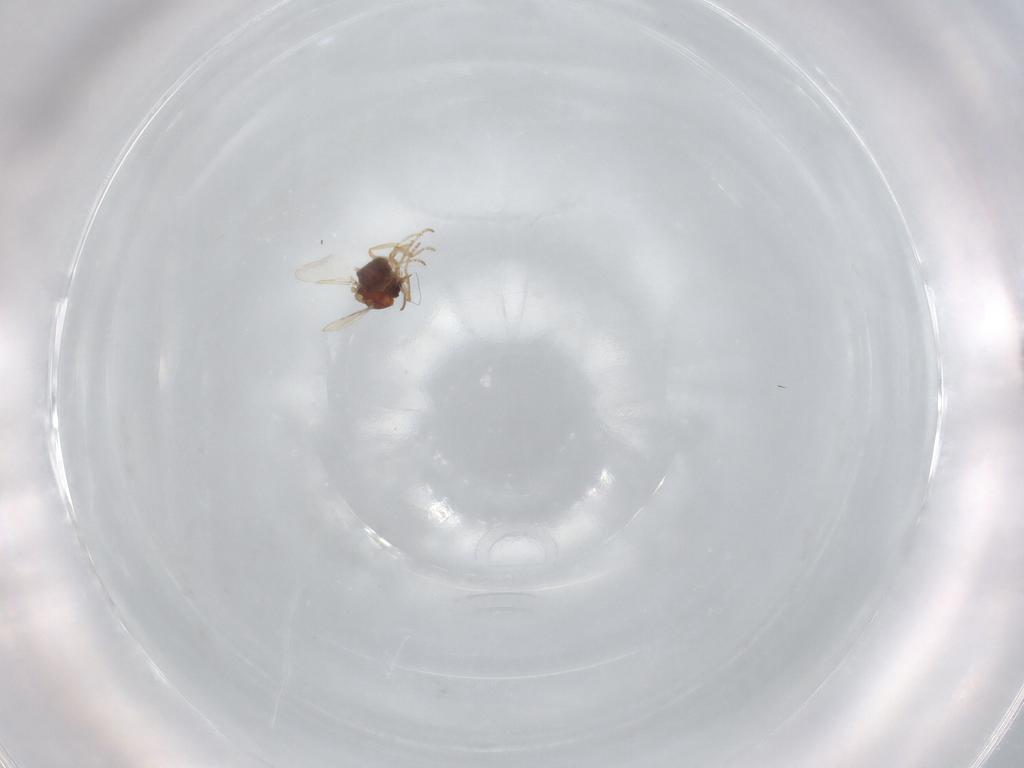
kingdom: Animalia
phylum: Arthropoda
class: Insecta
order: Diptera
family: Ceratopogonidae
